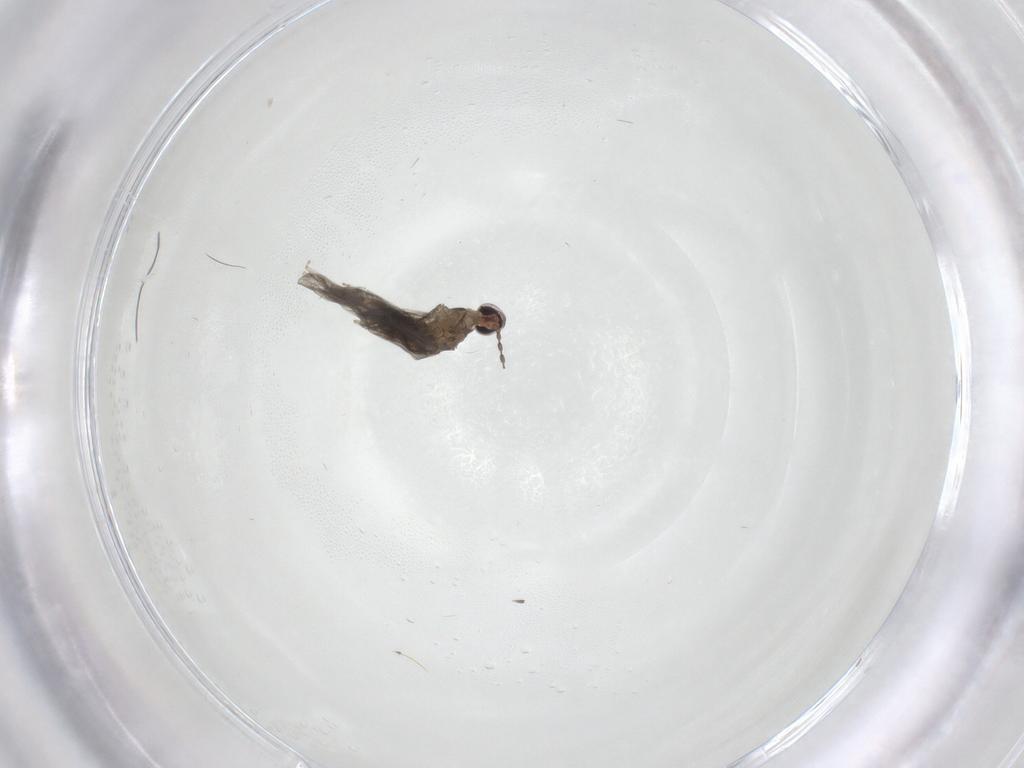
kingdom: Animalia
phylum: Arthropoda
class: Insecta
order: Diptera
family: Cecidomyiidae
